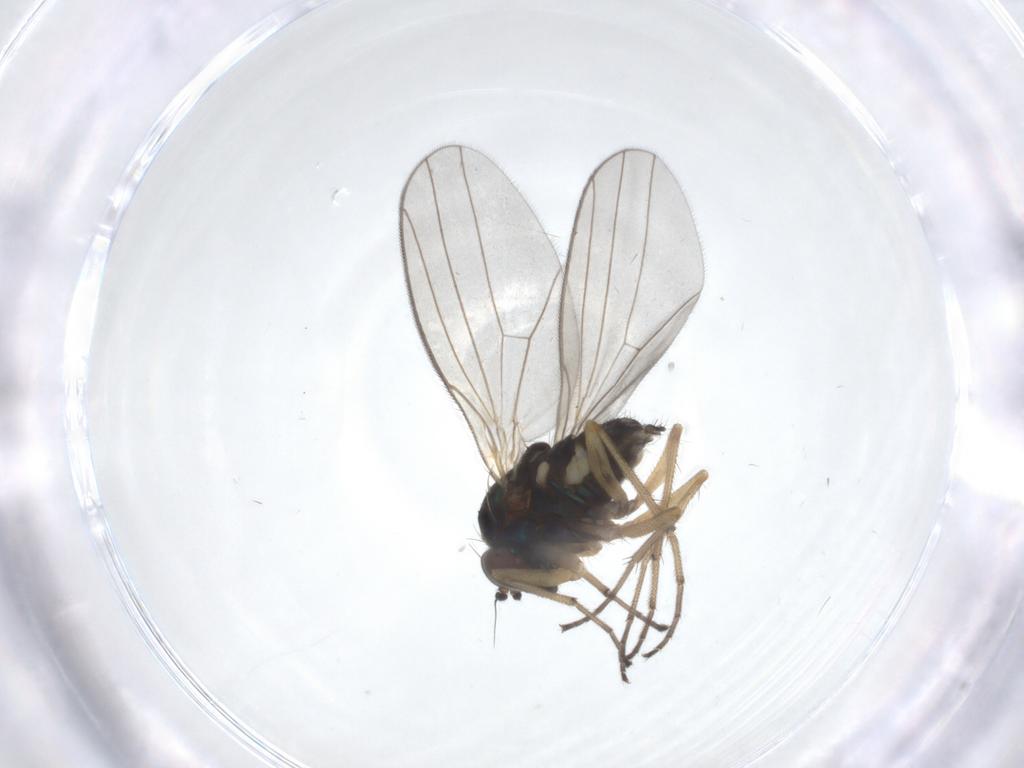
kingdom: Animalia
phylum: Arthropoda
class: Insecta
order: Diptera
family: Dolichopodidae
